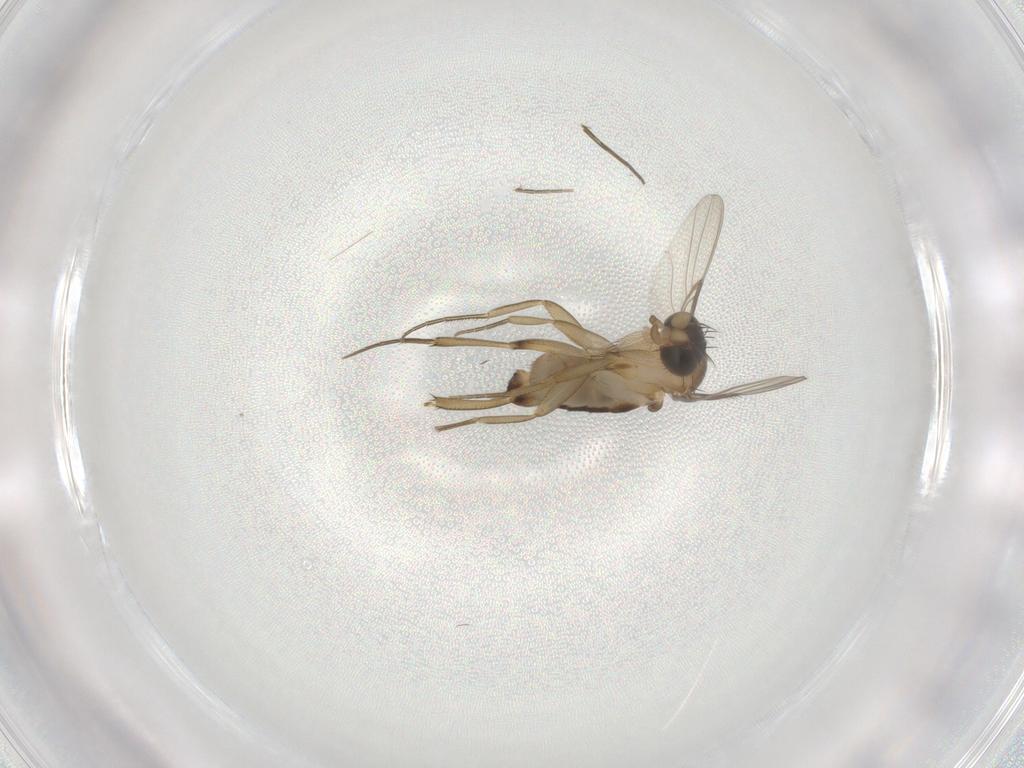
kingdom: Animalia
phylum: Arthropoda
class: Insecta
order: Diptera
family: Phoridae
